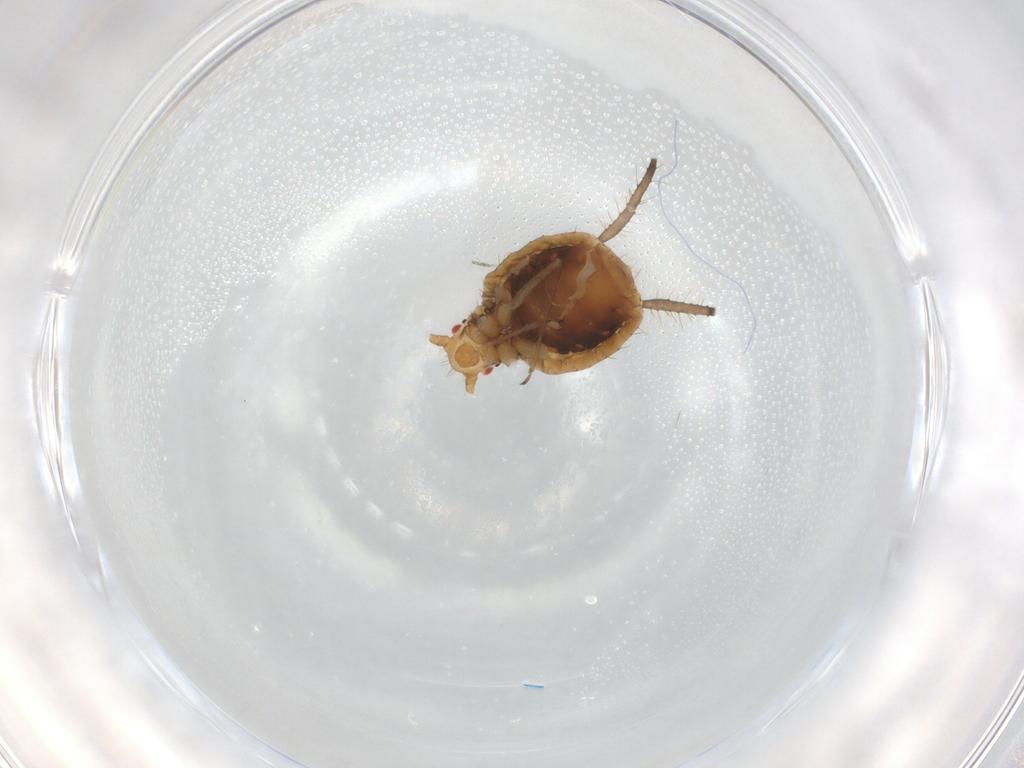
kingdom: Animalia
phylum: Arthropoda
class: Insecta
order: Hemiptera
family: Aphididae
